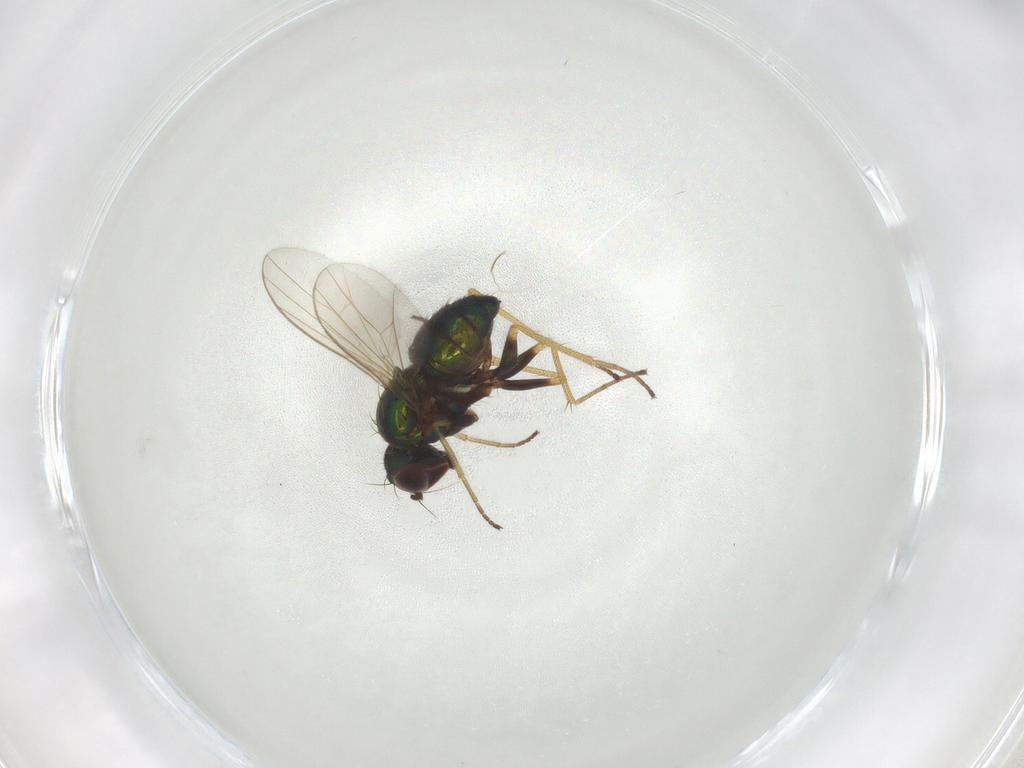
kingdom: Animalia
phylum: Arthropoda
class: Insecta
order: Diptera
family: Dolichopodidae
